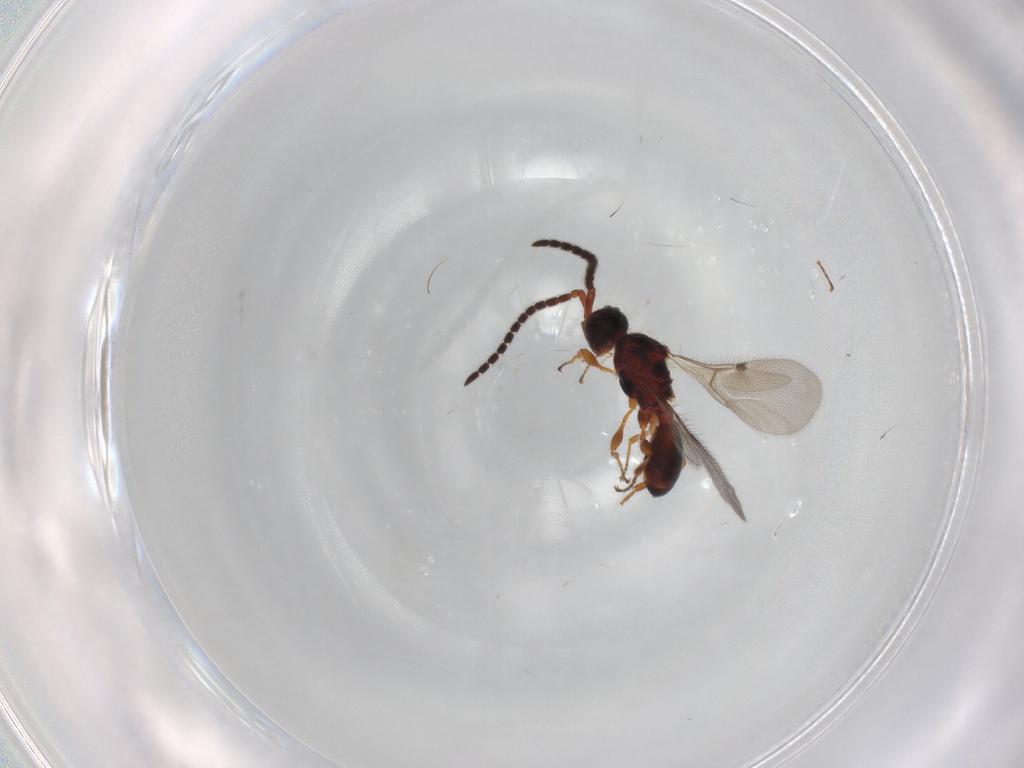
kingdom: Animalia
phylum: Arthropoda
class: Insecta
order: Hymenoptera
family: Diapriidae
